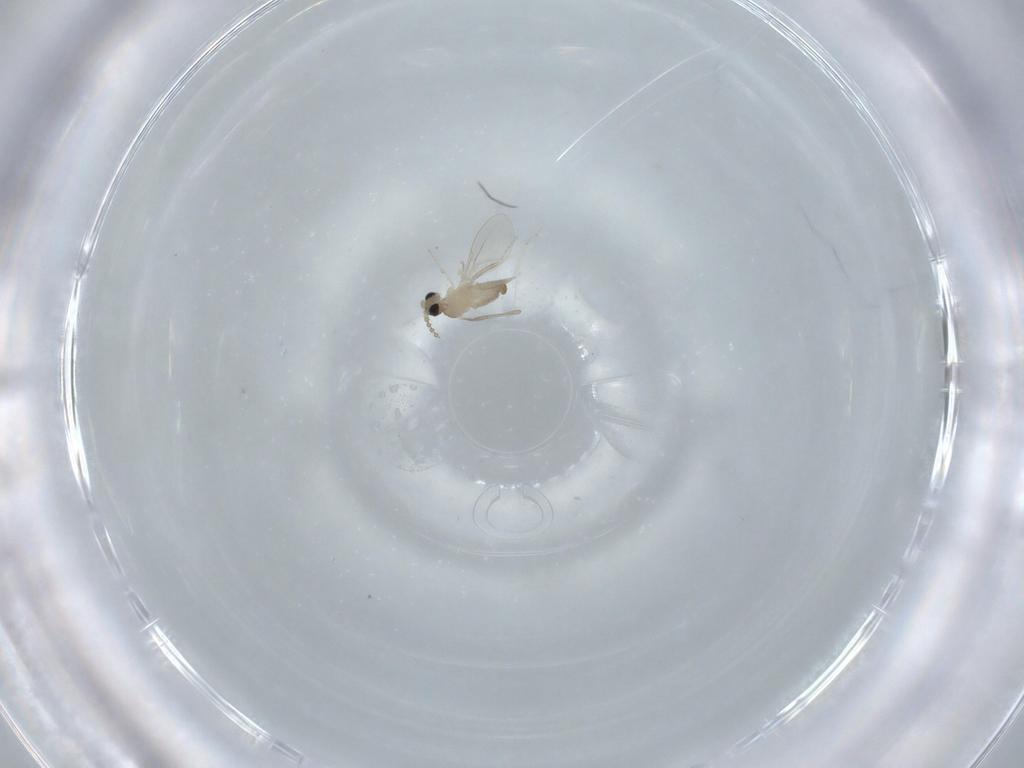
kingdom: Animalia
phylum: Arthropoda
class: Insecta
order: Diptera
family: Cecidomyiidae
